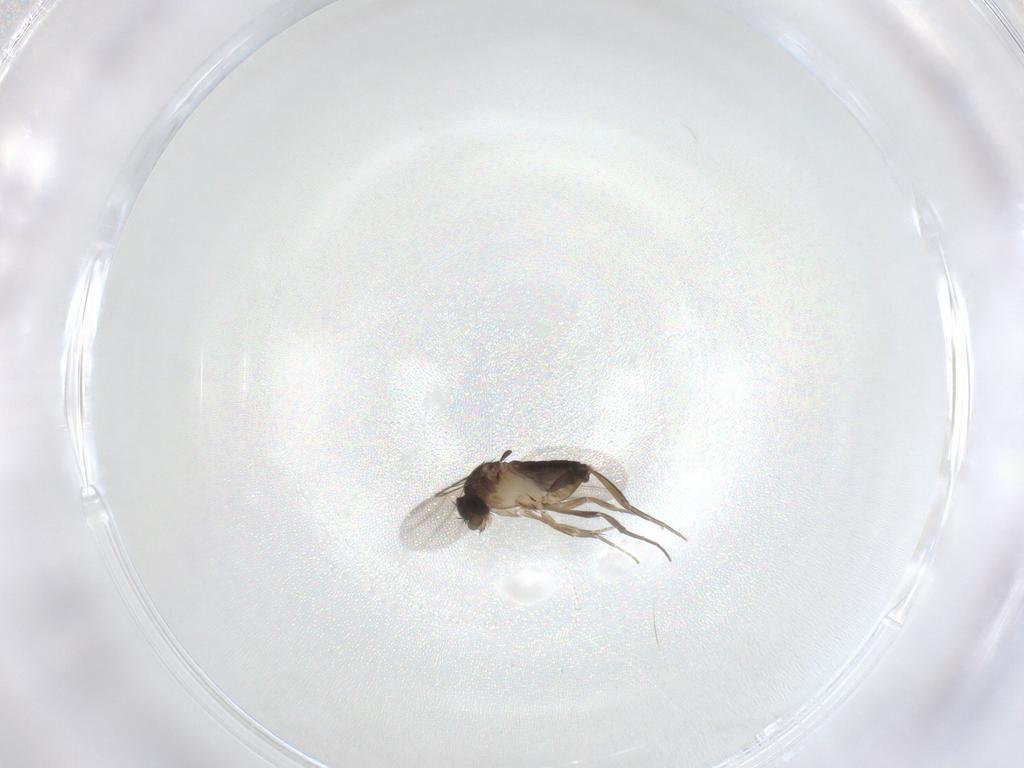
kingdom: Animalia
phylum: Arthropoda
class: Insecta
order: Diptera
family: Phoridae
